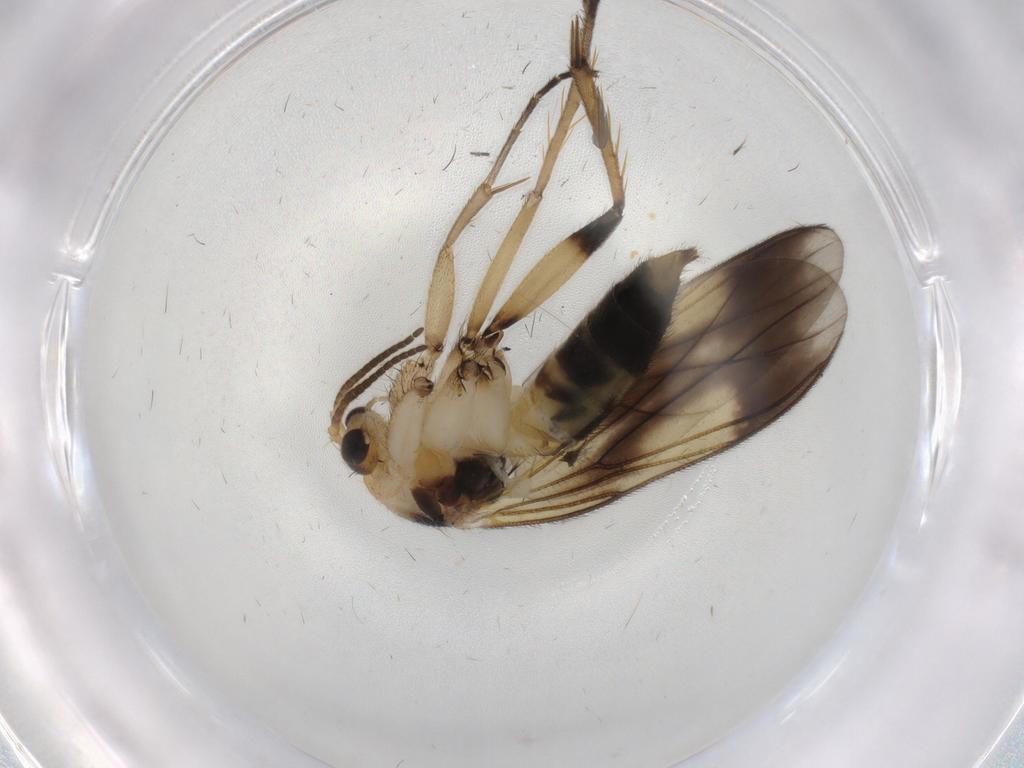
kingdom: Animalia
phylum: Arthropoda
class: Insecta
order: Diptera
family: Mycetophilidae
